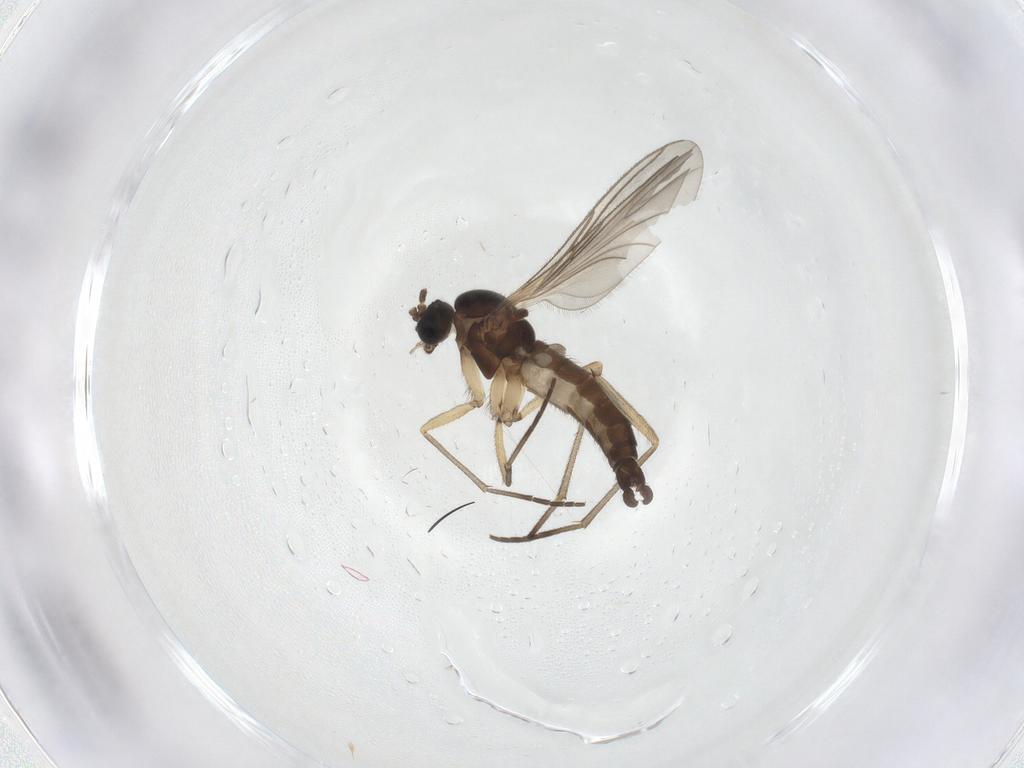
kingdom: Animalia
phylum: Arthropoda
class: Insecta
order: Diptera
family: Sciaridae
